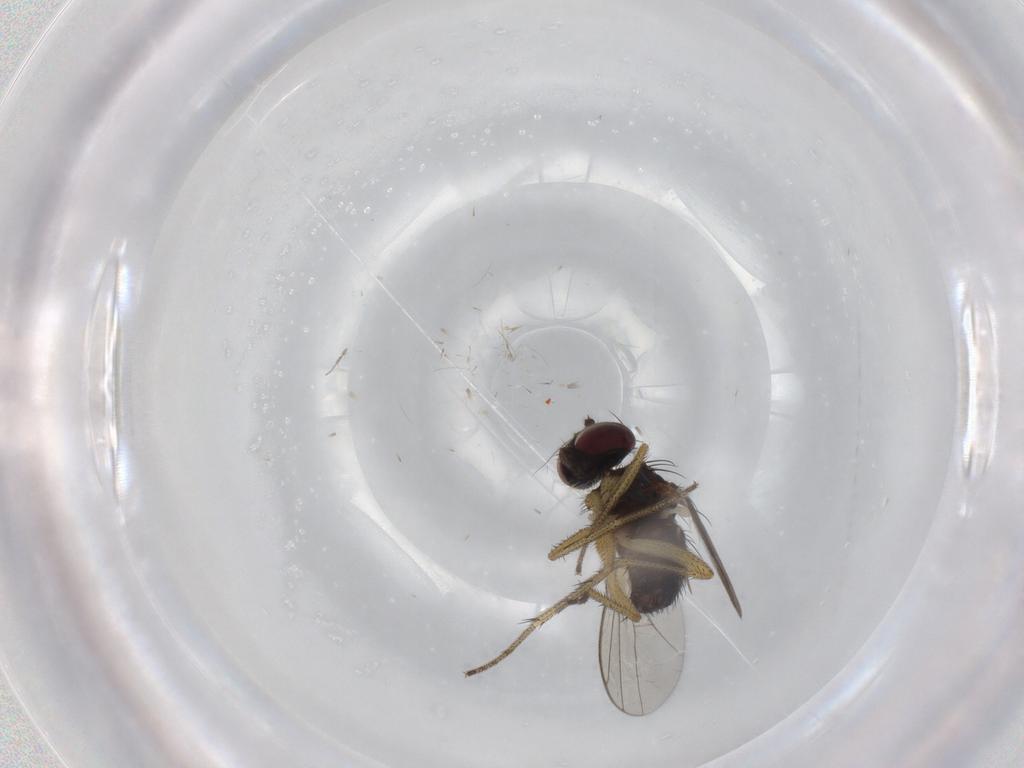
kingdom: Animalia
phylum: Arthropoda
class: Insecta
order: Diptera
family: Dolichopodidae
